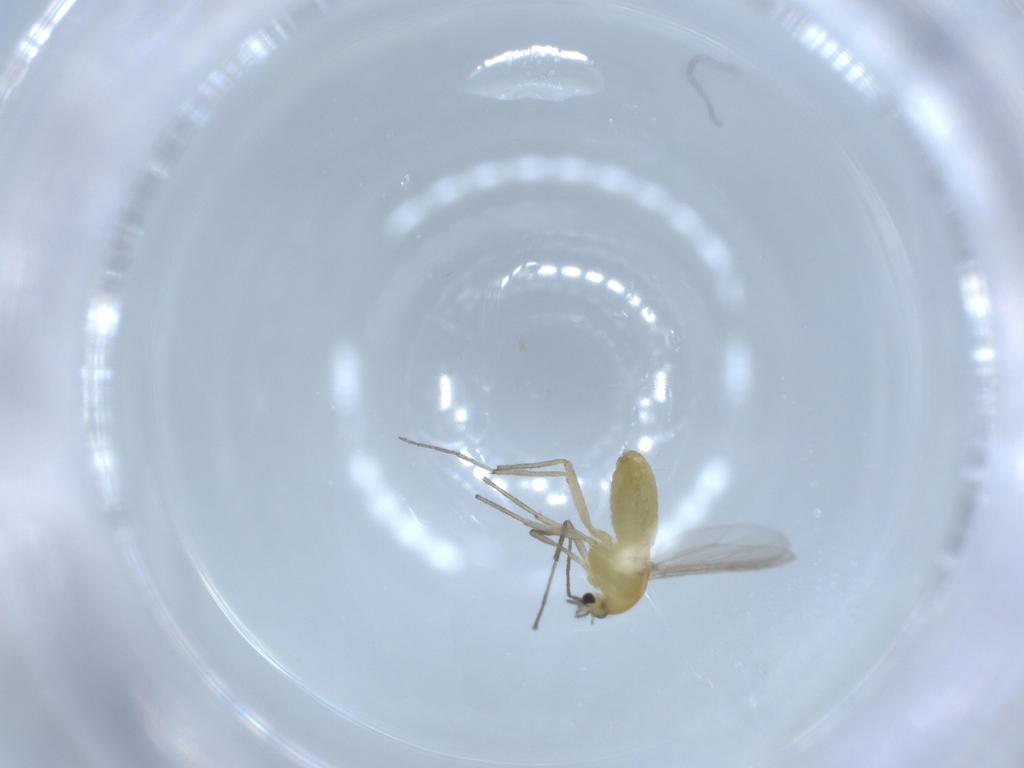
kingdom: Animalia
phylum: Arthropoda
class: Insecta
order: Diptera
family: Chironomidae
